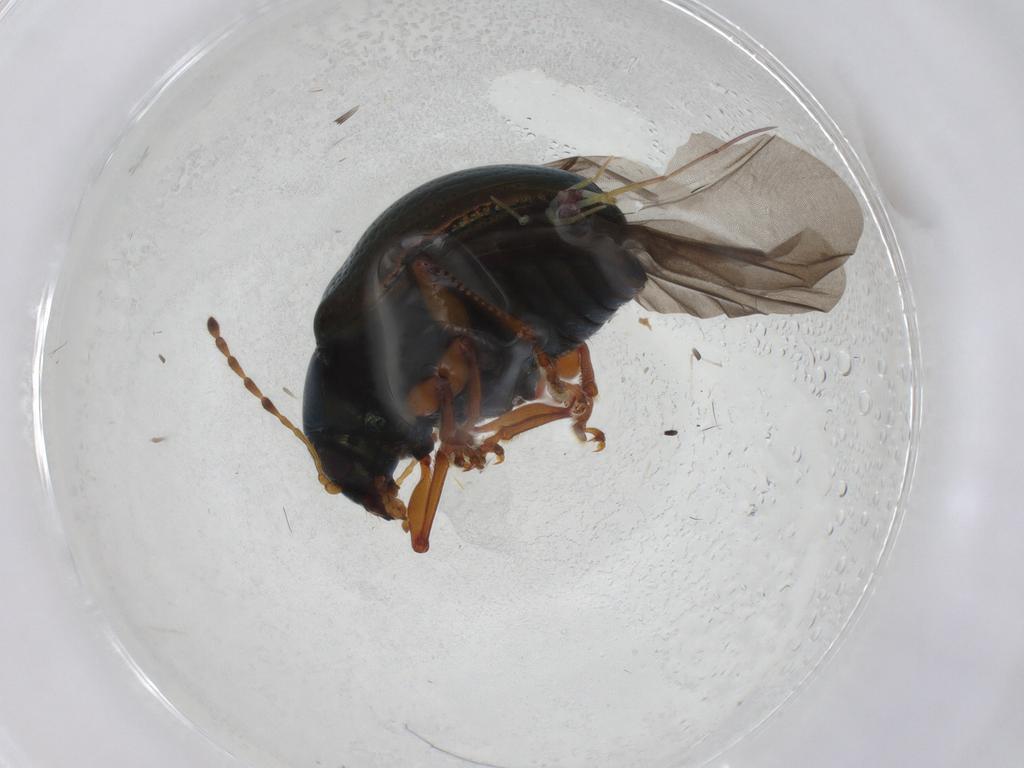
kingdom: Animalia
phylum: Arthropoda
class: Insecta
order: Coleoptera
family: Chrysomelidae
